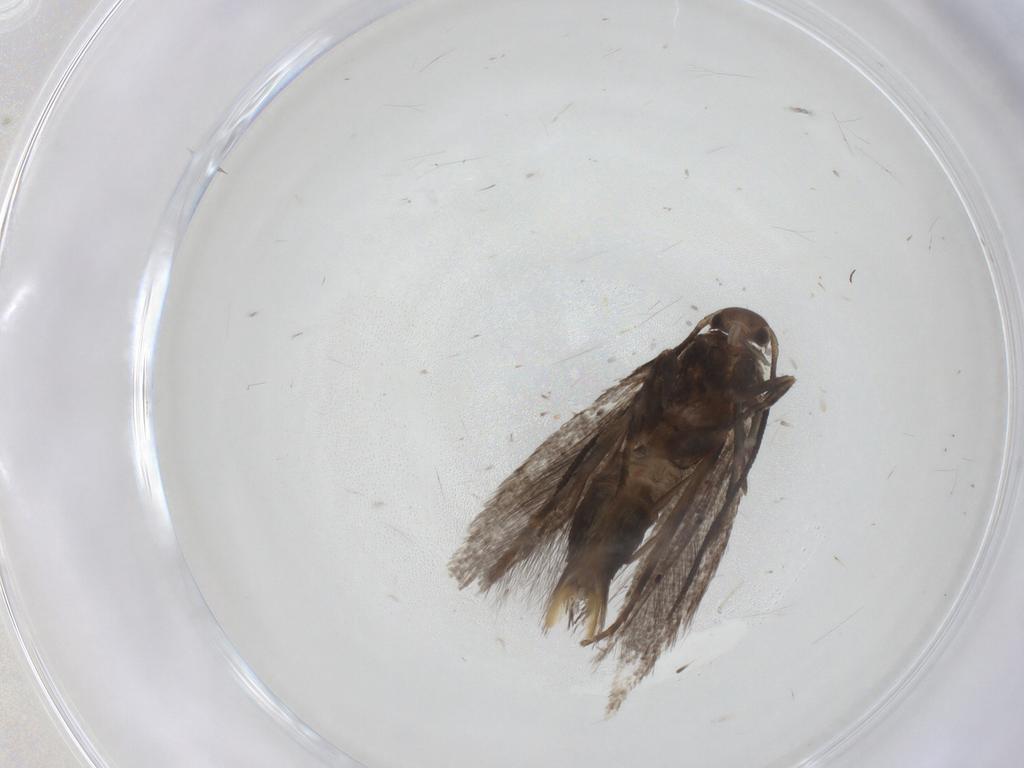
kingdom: Animalia
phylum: Arthropoda
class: Insecta
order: Lepidoptera
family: Elachistidae
